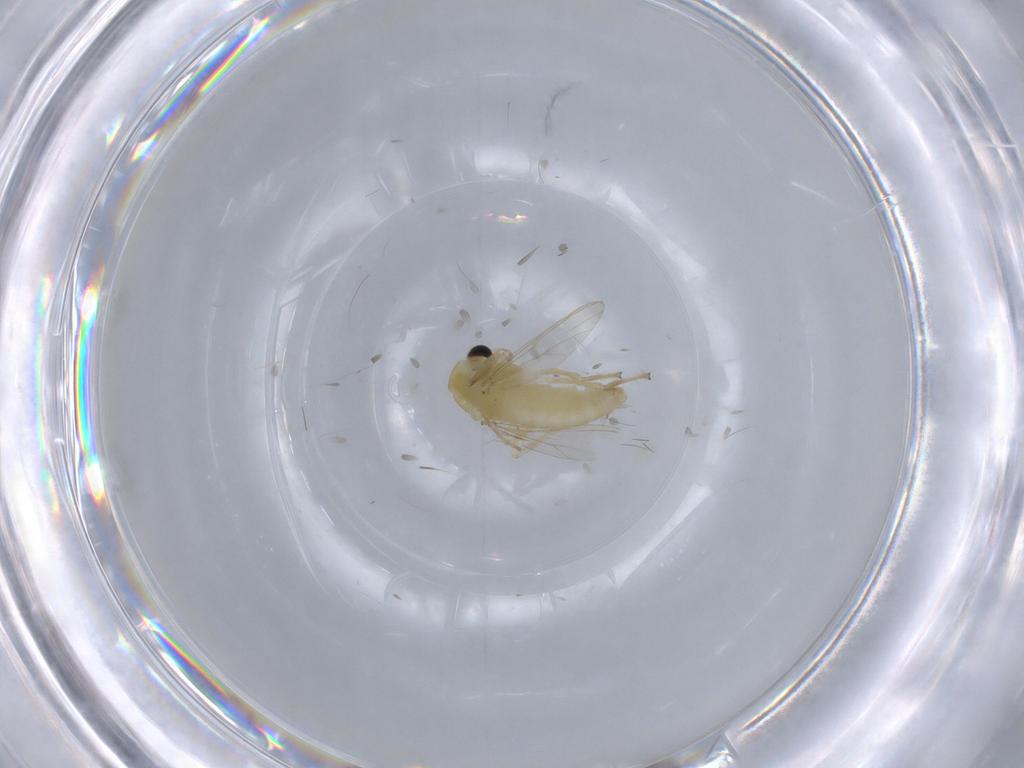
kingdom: Animalia
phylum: Arthropoda
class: Insecta
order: Diptera
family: Chironomidae
